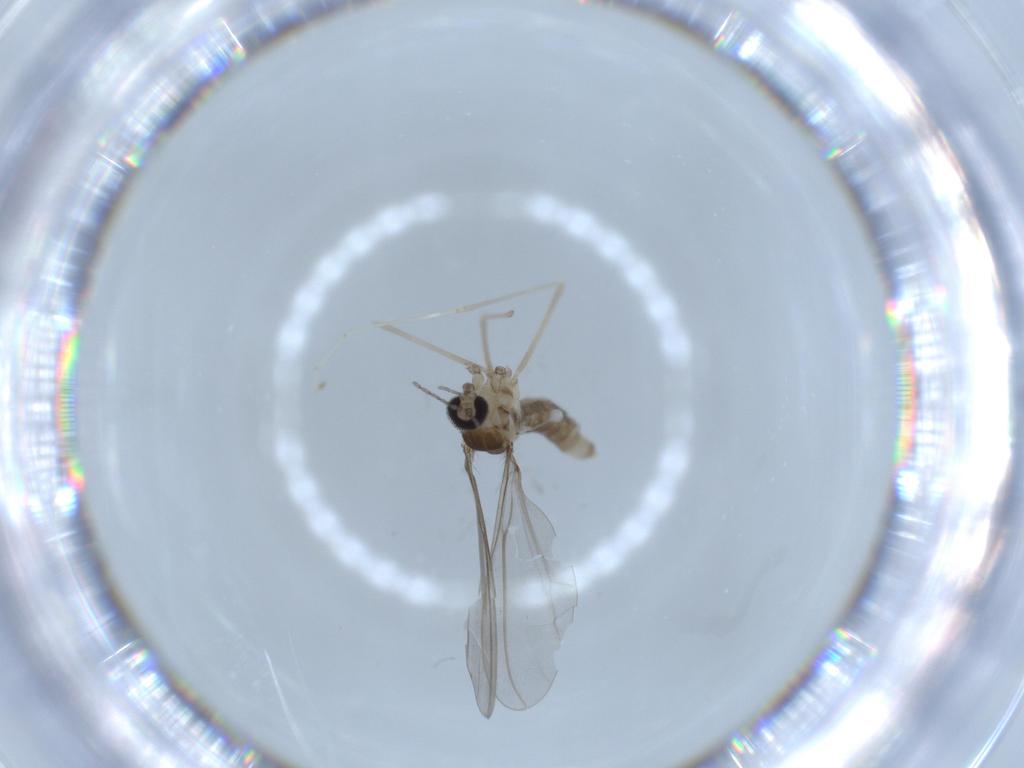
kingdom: Animalia
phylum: Arthropoda
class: Insecta
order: Diptera
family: Cecidomyiidae
